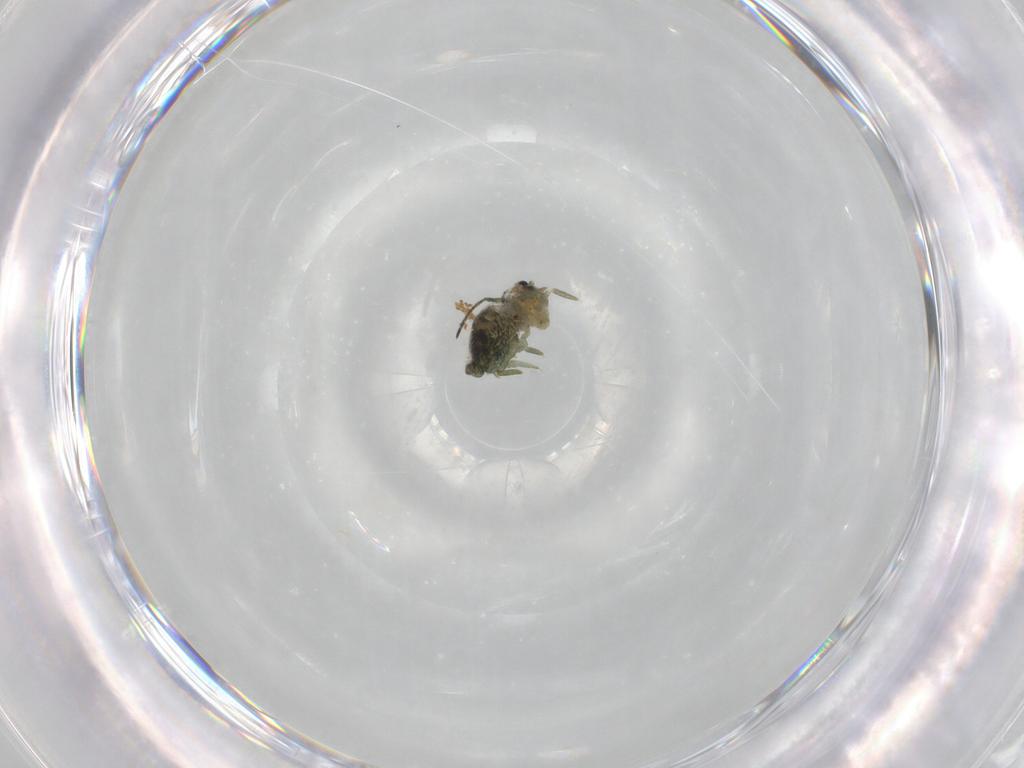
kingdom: Animalia
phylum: Arthropoda
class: Collembola
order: Symphypleona
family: Sminthuridae
